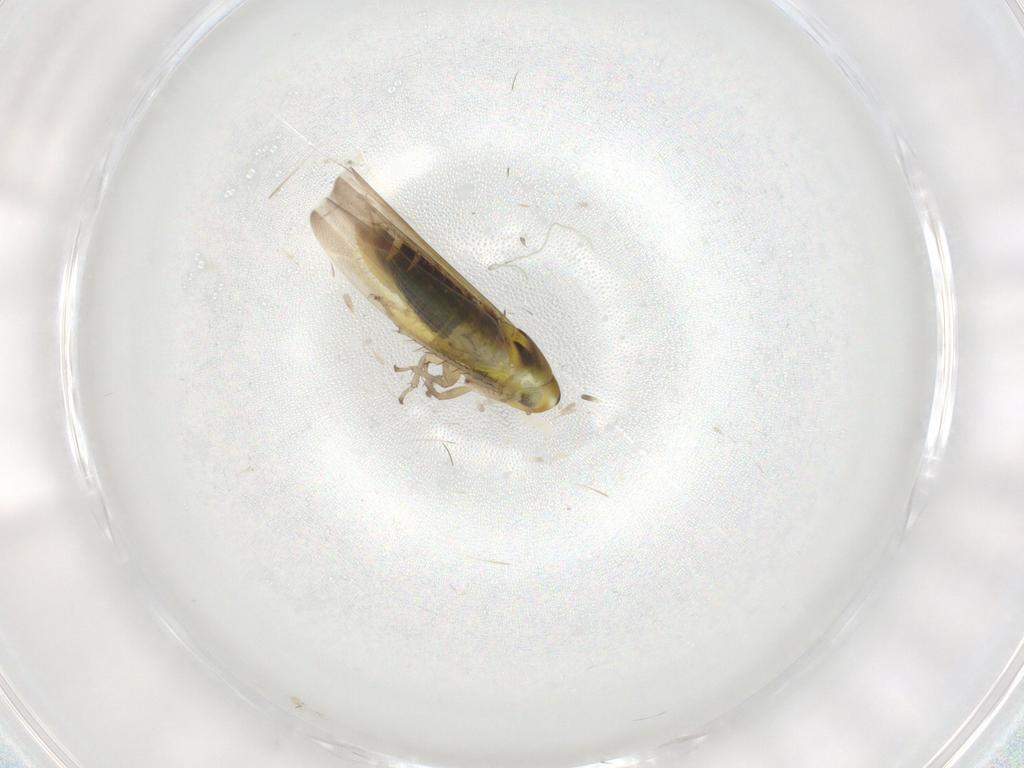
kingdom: Animalia
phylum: Arthropoda
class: Insecta
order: Hemiptera
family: Cicadellidae
